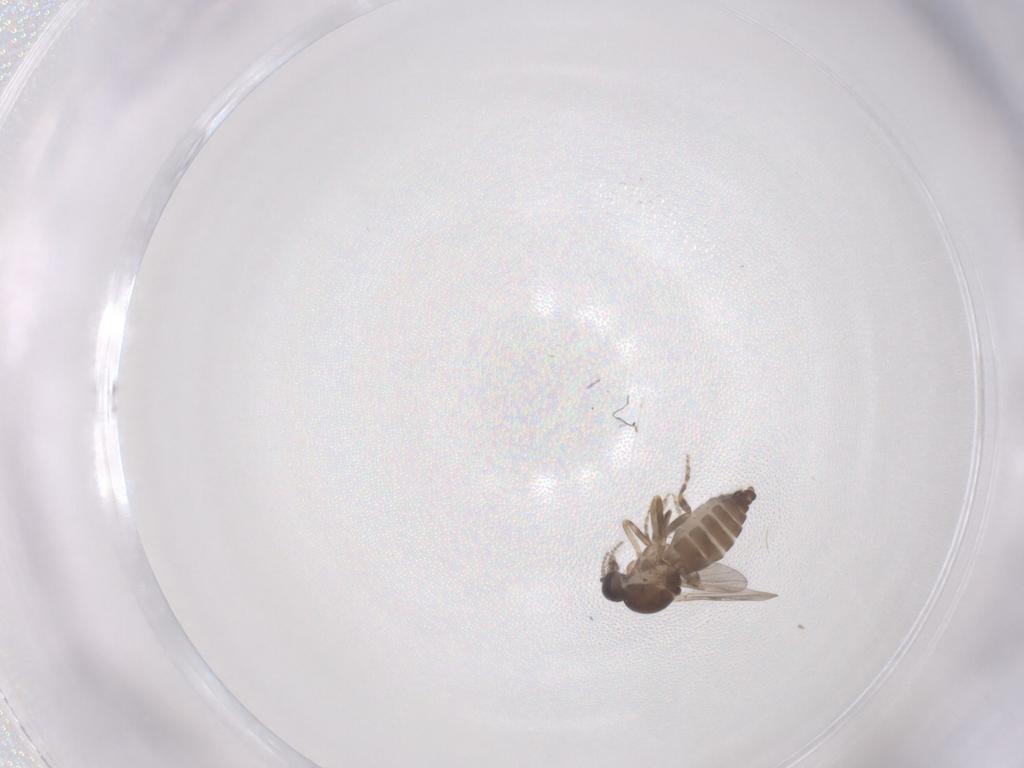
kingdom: Animalia
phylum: Arthropoda
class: Insecta
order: Diptera
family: Ceratopogonidae
